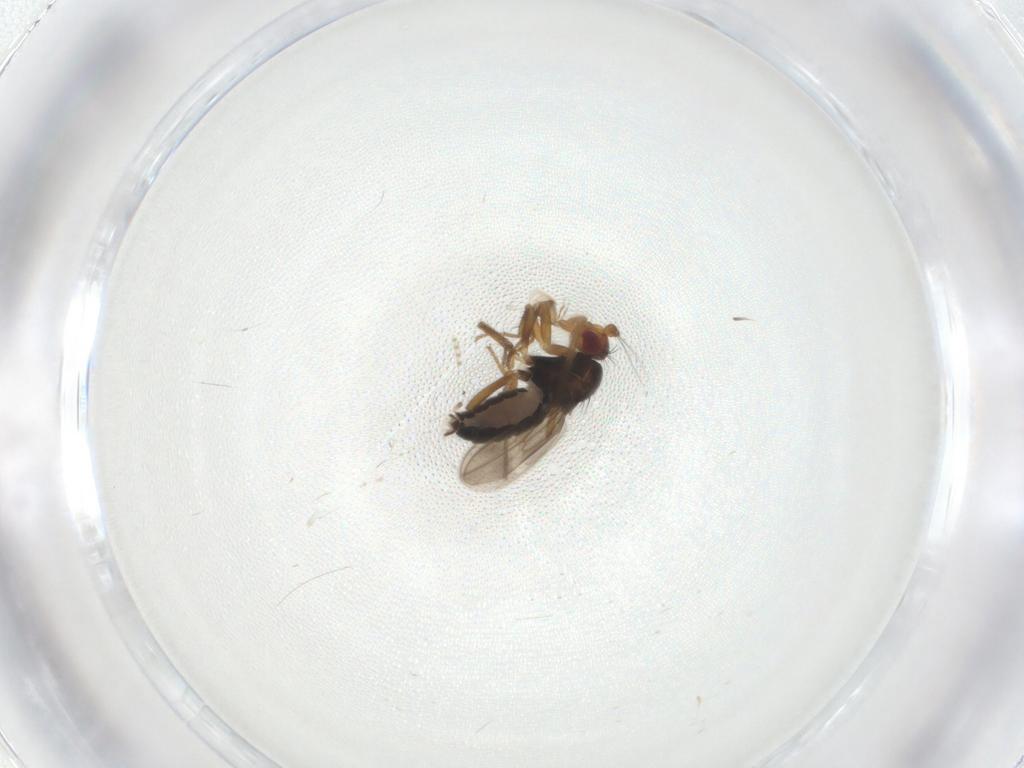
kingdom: Animalia
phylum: Arthropoda
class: Insecta
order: Diptera
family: Sphaeroceridae
